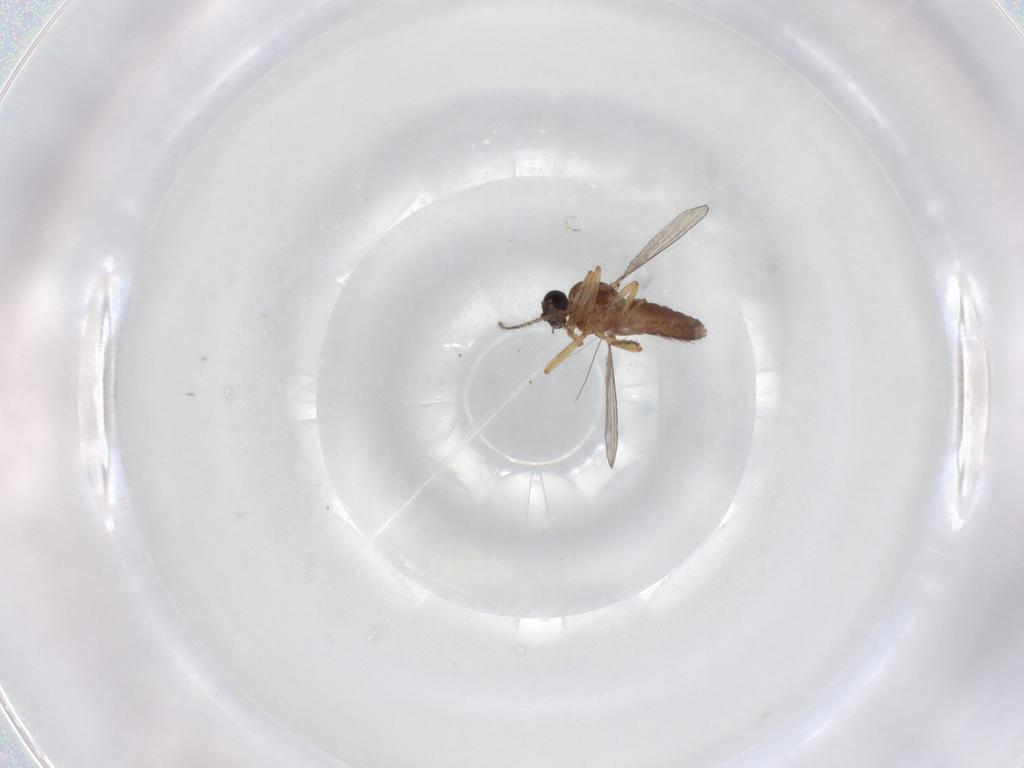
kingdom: Animalia
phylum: Arthropoda
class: Insecta
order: Diptera
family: Ceratopogonidae
